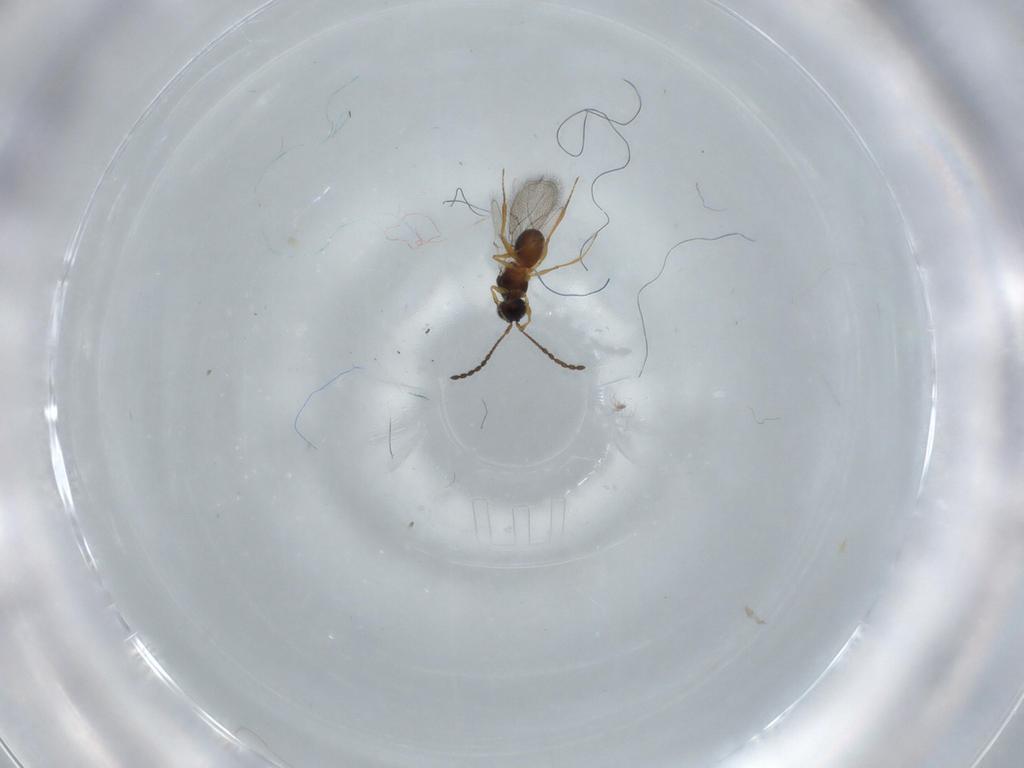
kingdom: Animalia
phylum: Arthropoda
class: Insecta
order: Hymenoptera
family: Figitidae
